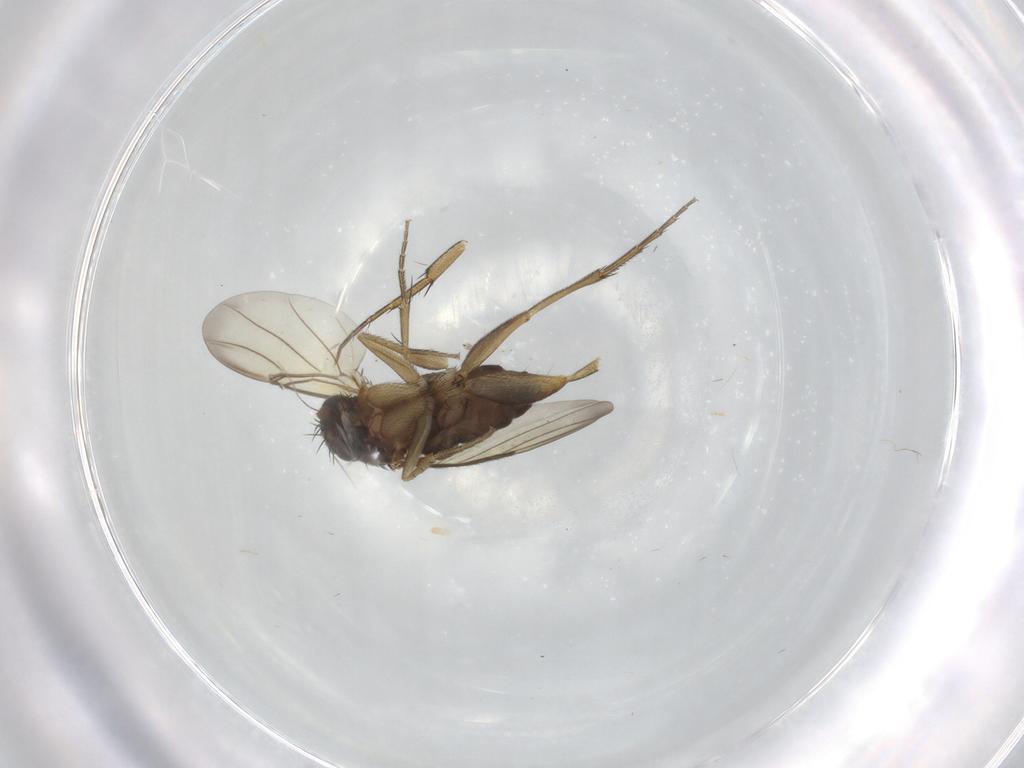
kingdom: Animalia
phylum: Arthropoda
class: Insecta
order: Diptera
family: Phoridae
